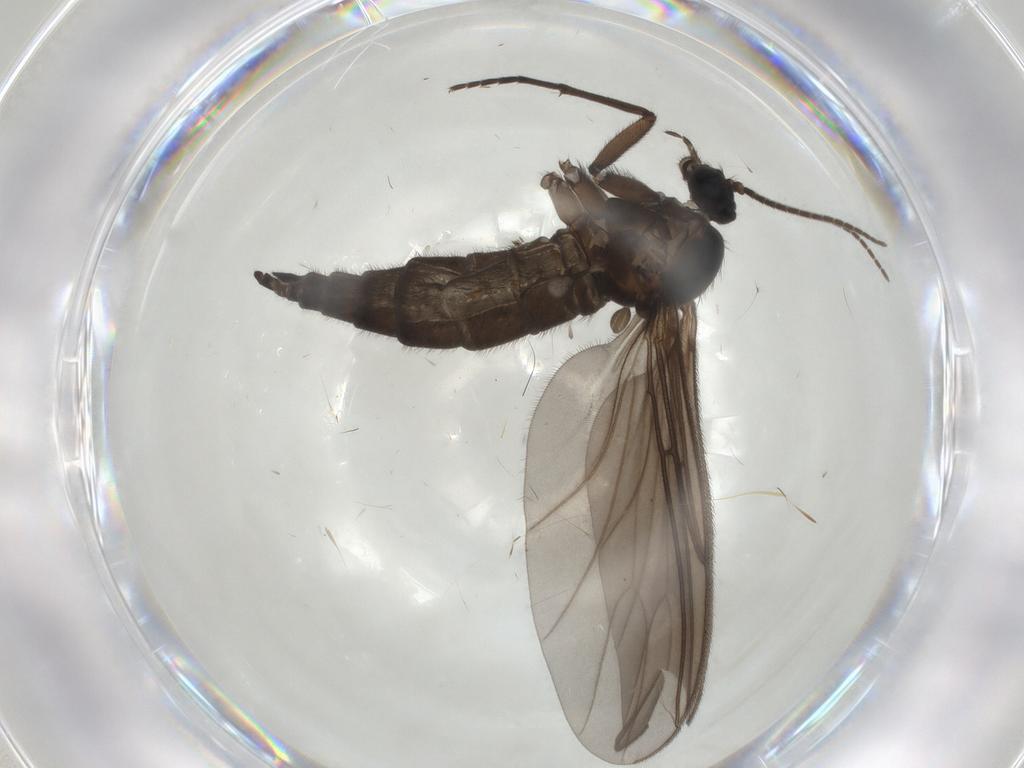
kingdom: Animalia
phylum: Arthropoda
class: Insecta
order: Diptera
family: Sciaridae
